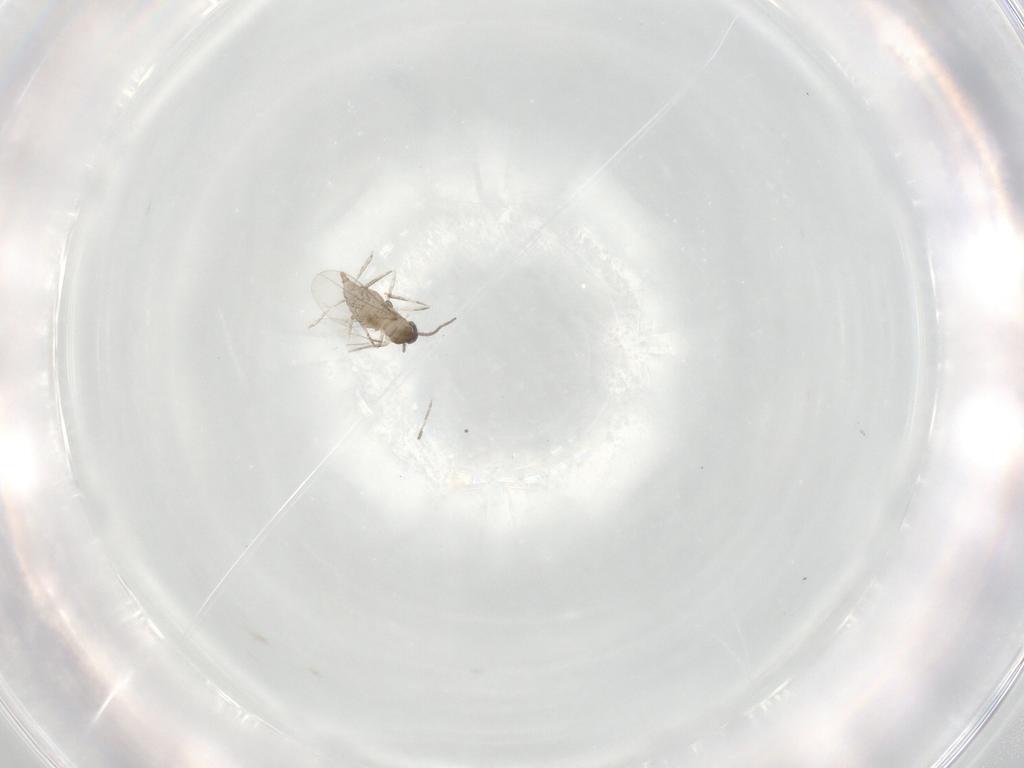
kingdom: Animalia
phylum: Arthropoda
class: Insecta
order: Diptera
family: Cecidomyiidae
